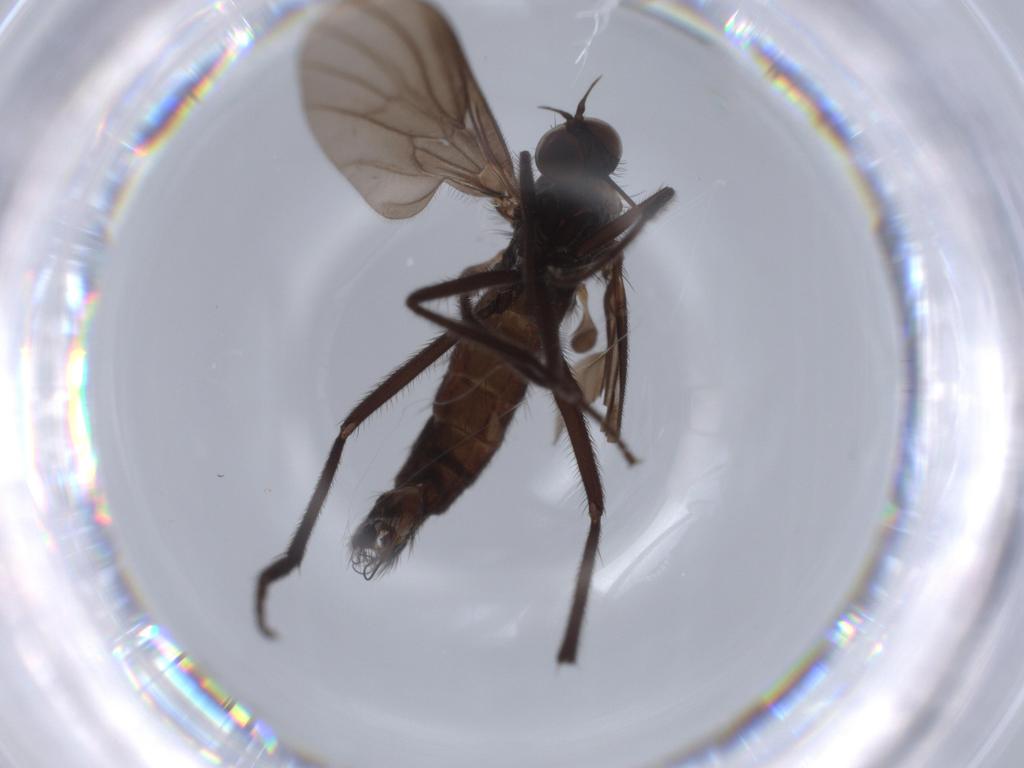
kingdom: Animalia
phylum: Arthropoda
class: Insecta
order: Diptera
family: Empididae
